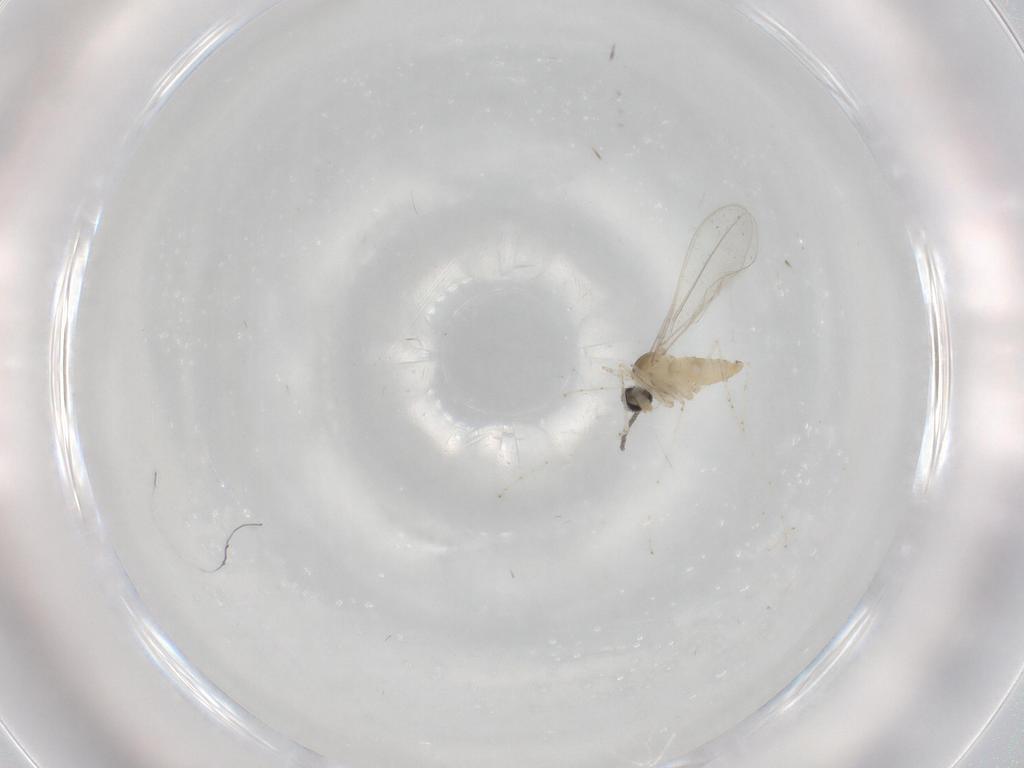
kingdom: Animalia
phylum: Arthropoda
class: Insecta
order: Diptera
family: Cecidomyiidae
